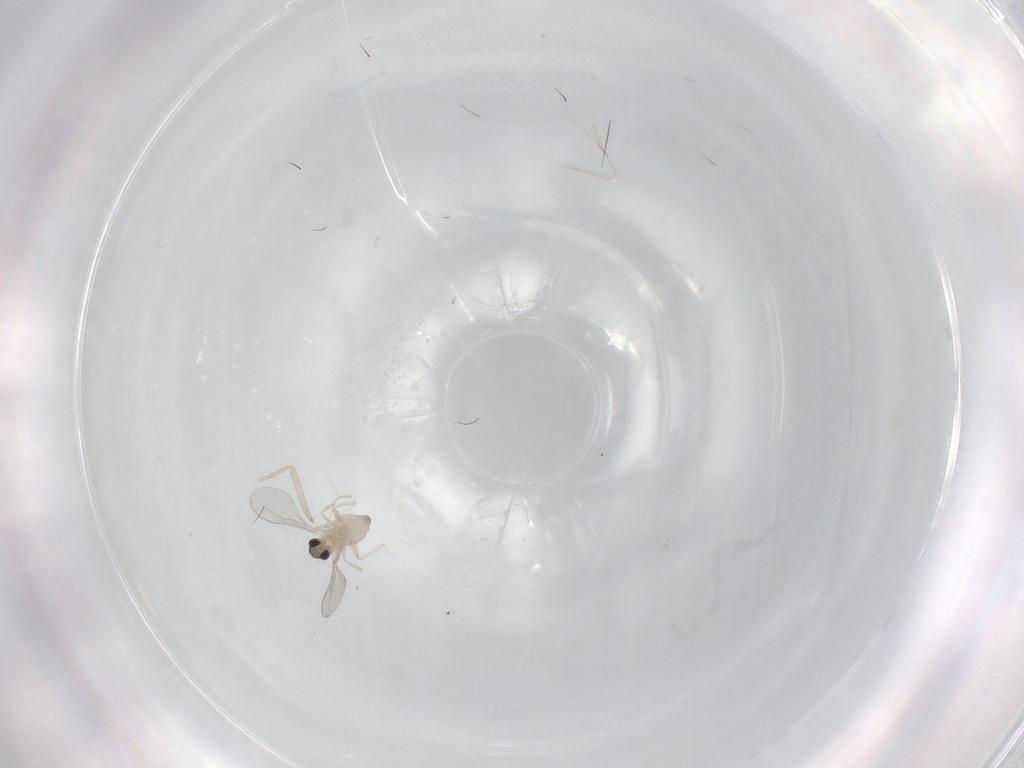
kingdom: Animalia
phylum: Arthropoda
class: Insecta
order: Diptera
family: Cecidomyiidae
